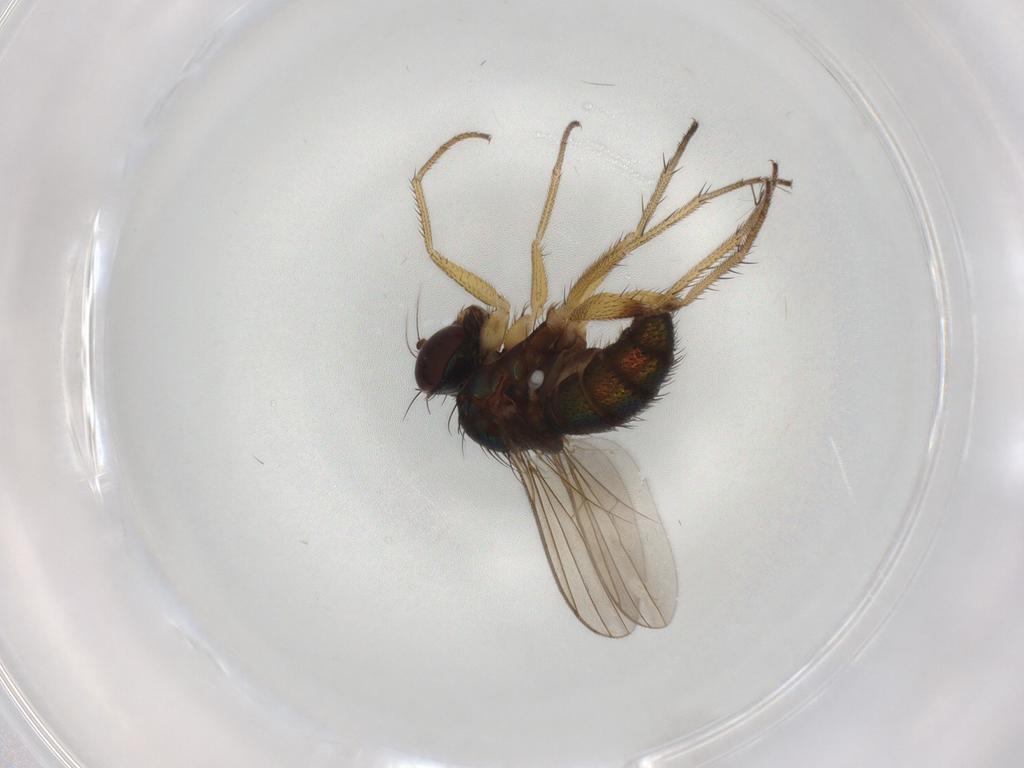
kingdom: Animalia
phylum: Arthropoda
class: Insecta
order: Diptera
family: Dolichopodidae
